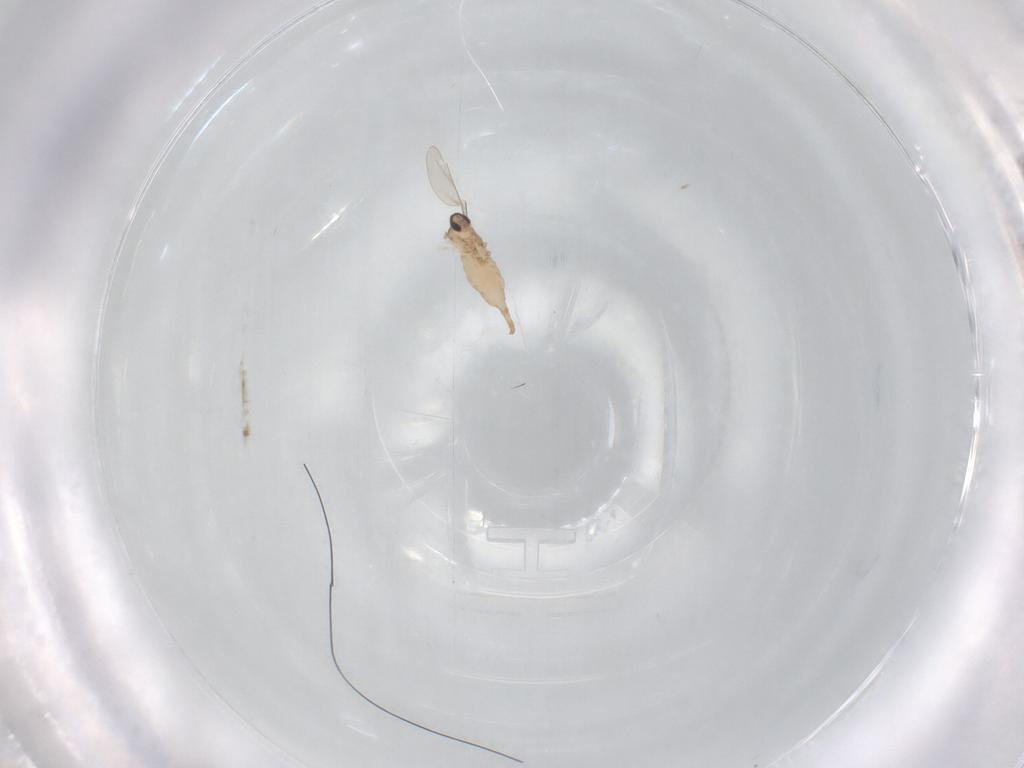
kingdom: Animalia
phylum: Arthropoda
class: Insecta
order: Diptera
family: Cecidomyiidae
